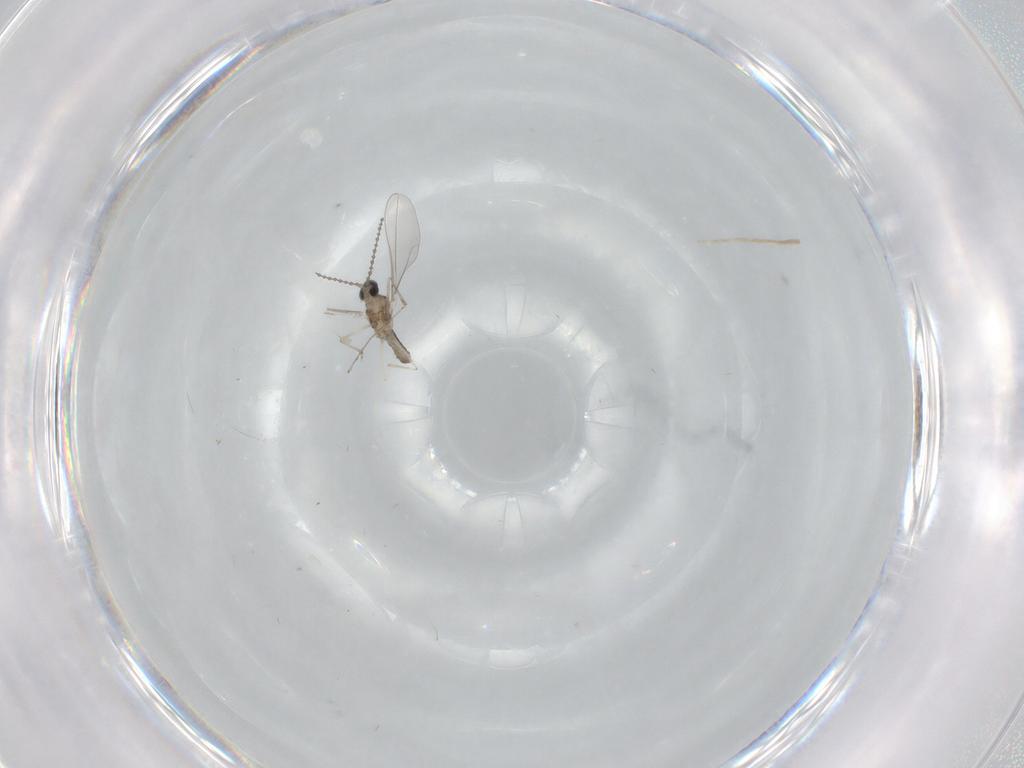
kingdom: Animalia
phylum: Arthropoda
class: Insecta
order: Diptera
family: Cecidomyiidae
